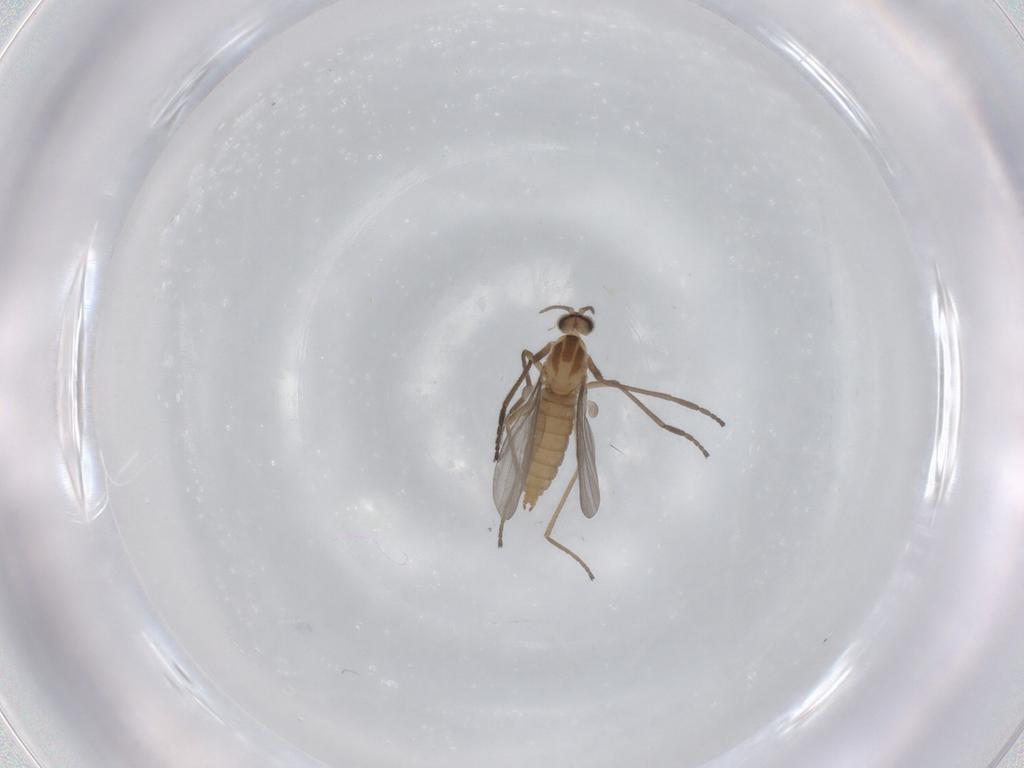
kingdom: Animalia
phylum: Arthropoda
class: Insecta
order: Diptera
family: Cecidomyiidae
